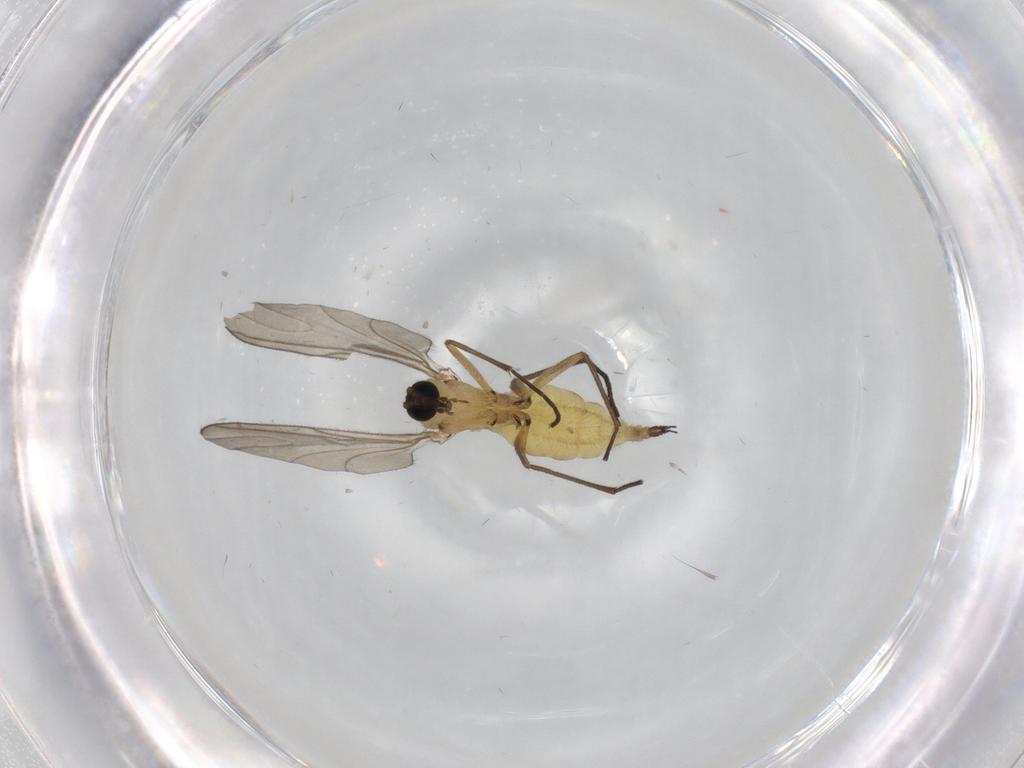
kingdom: Animalia
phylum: Arthropoda
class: Insecta
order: Diptera
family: Sciaridae
